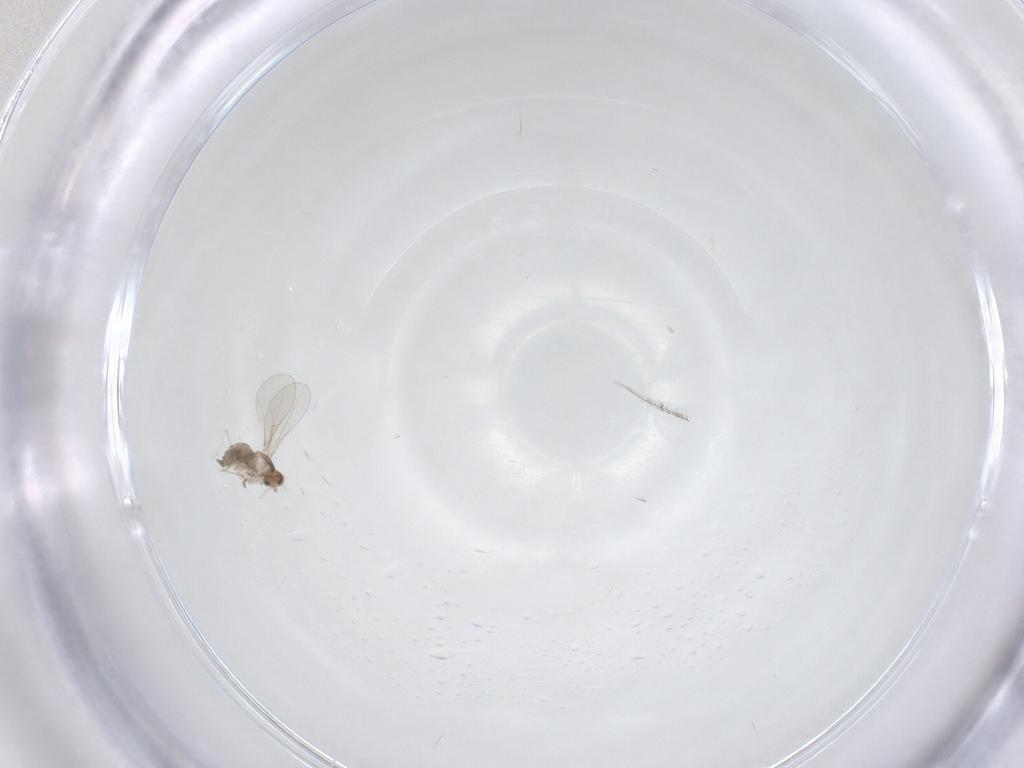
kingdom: Animalia
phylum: Arthropoda
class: Insecta
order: Diptera
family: Cecidomyiidae
